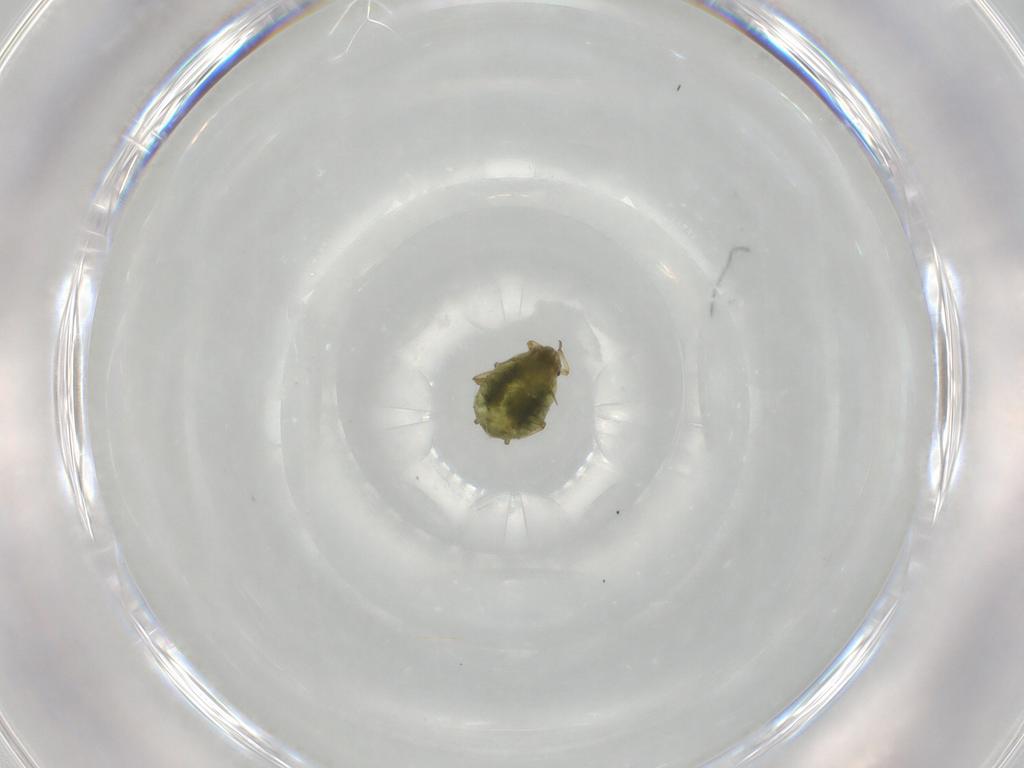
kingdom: Animalia
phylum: Arthropoda
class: Insecta
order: Hemiptera
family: Aphididae
